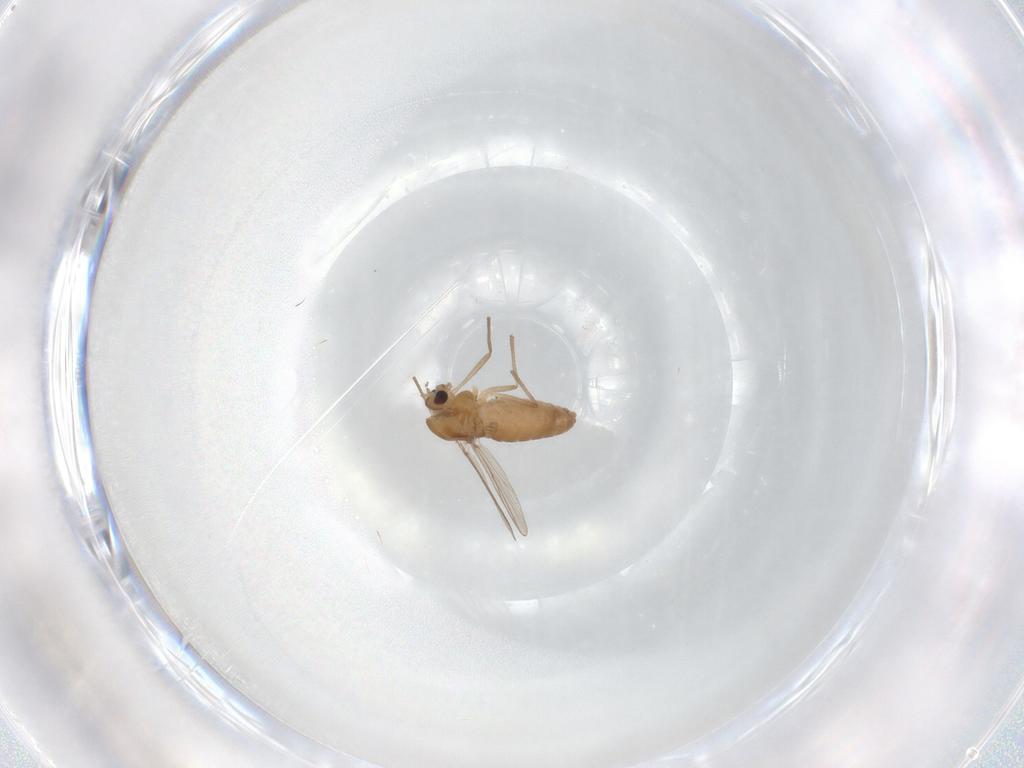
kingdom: Animalia
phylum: Arthropoda
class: Insecta
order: Diptera
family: Chironomidae
